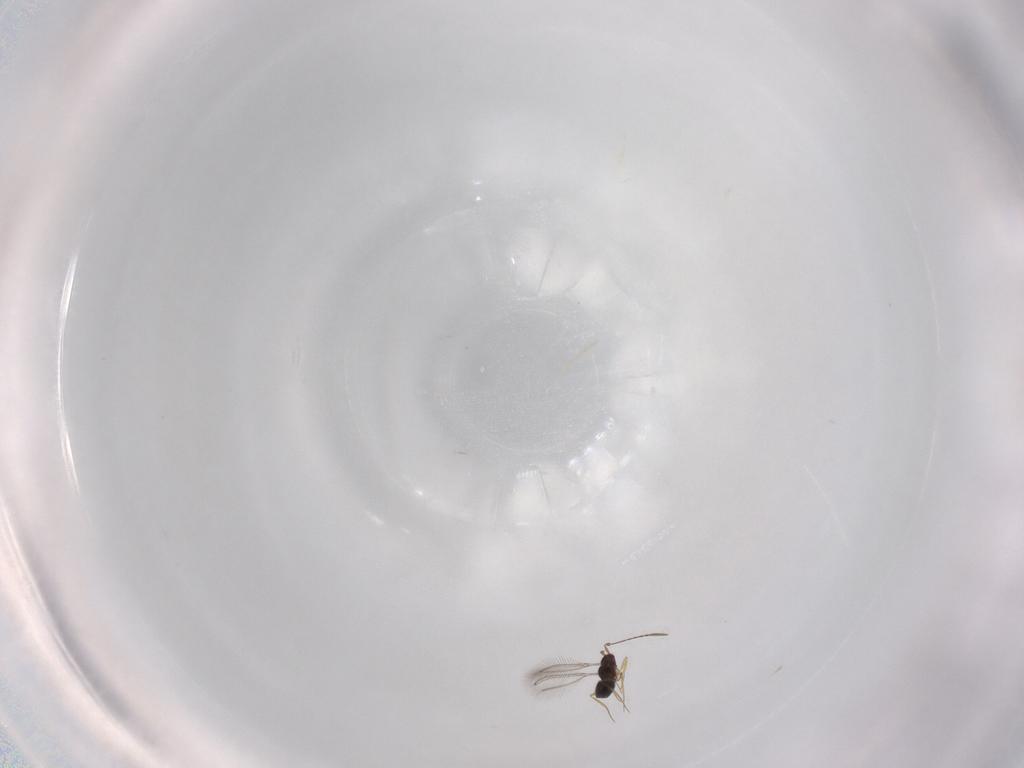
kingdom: Animalia
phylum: Arthropoda
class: Insecta
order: Hymenoptera
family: Mymaridae
